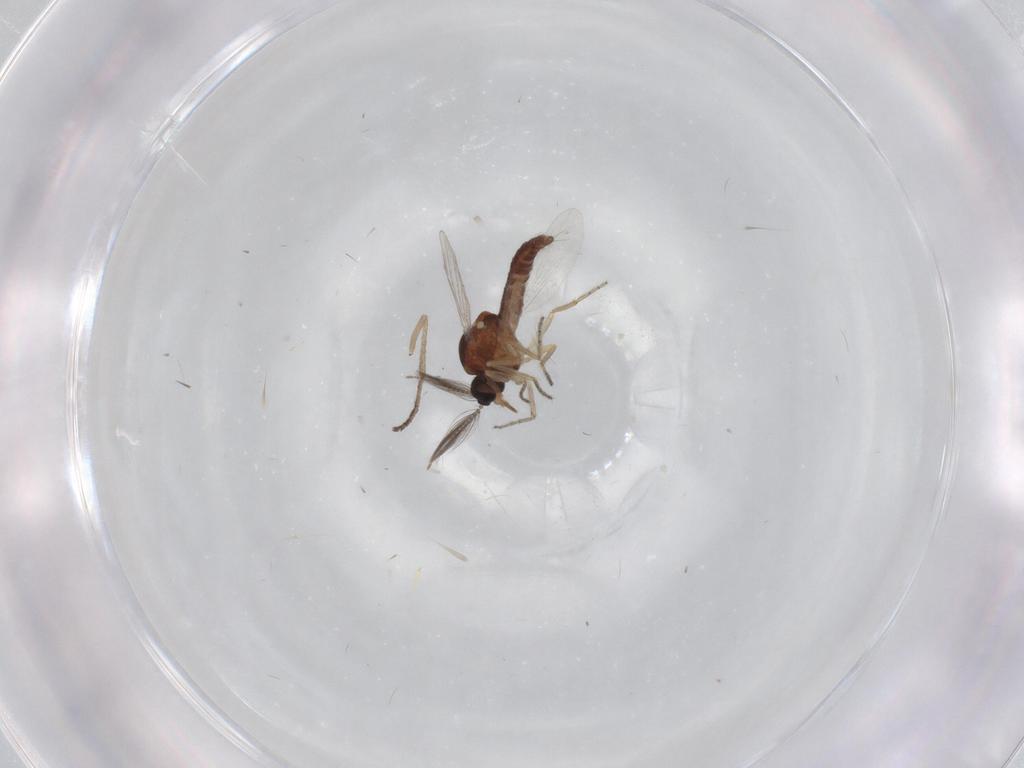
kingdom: Animalia
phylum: Arthropoda
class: Insecta
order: Diptera
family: Ceratopogonidae
